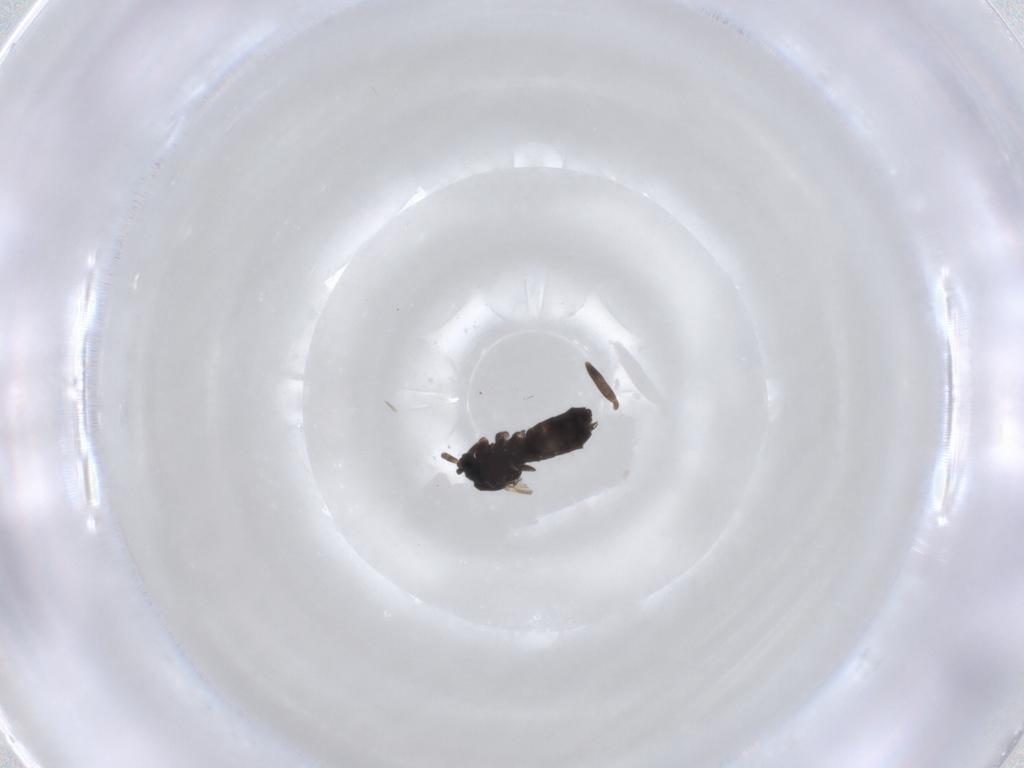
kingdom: Animalia
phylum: Arthropoda
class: Insecta
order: Diptera
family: Scatopsidae
